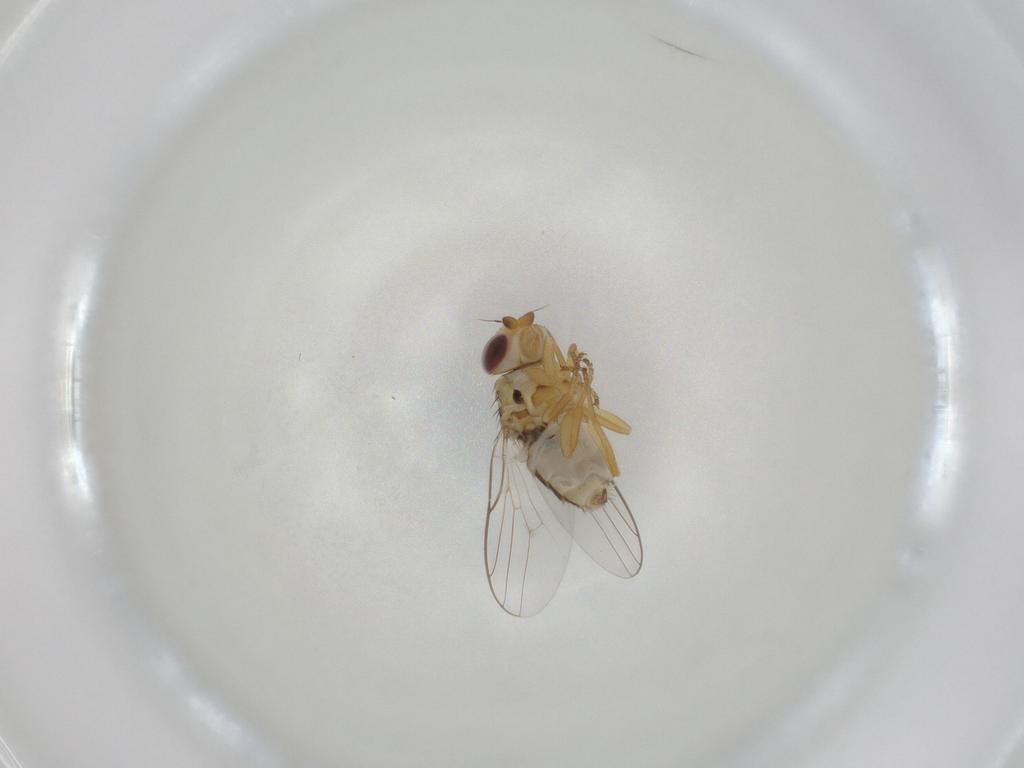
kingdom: Animalia
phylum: Arthropoda
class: Insecta
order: Diptera
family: Chloropidae
